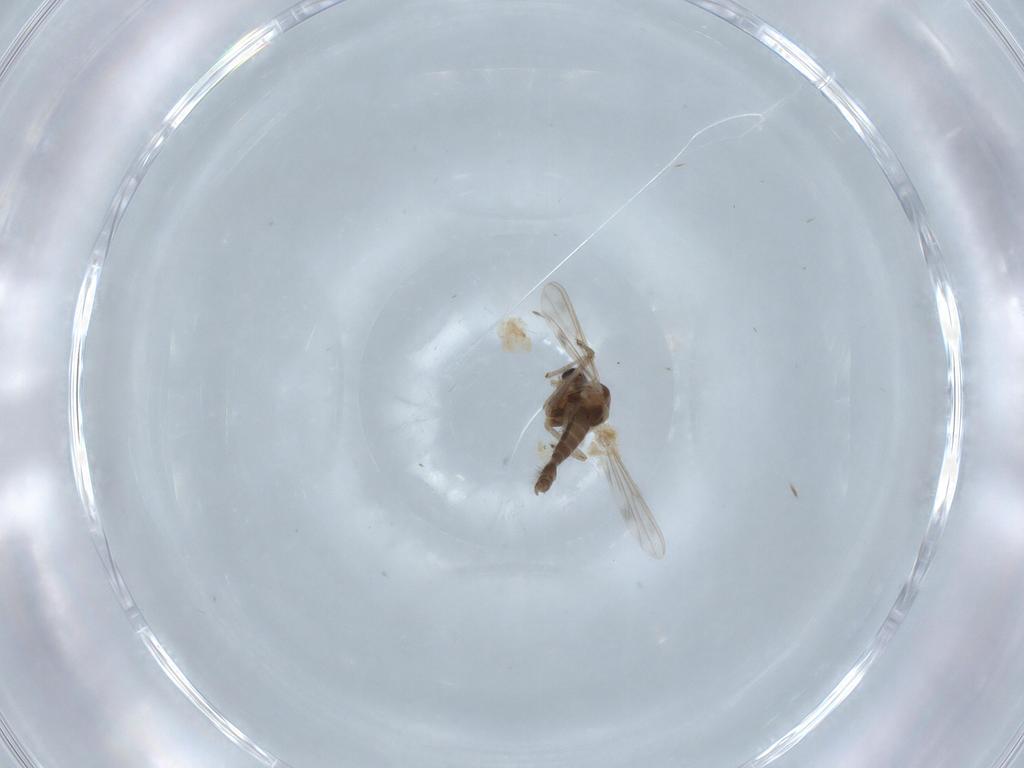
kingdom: Animalia
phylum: Arthropoda
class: Insecta
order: Diptera
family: Chironomidae
